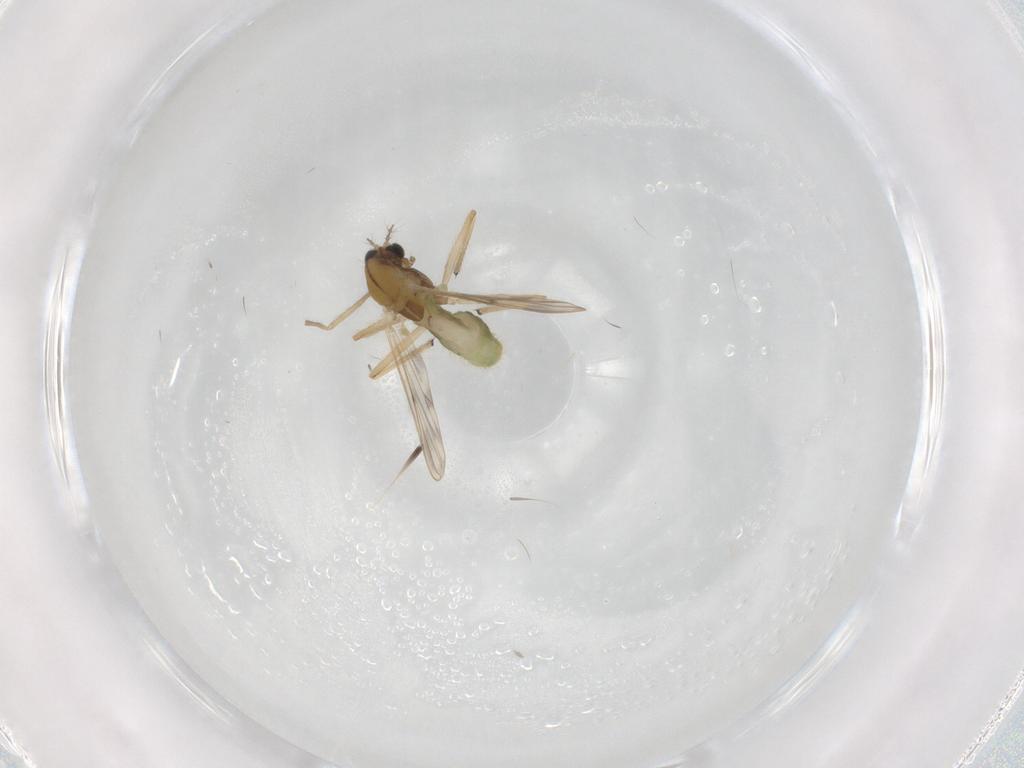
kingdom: Animalia
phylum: Arthropoda
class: Insecta
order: Diptera
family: Chironomidae
